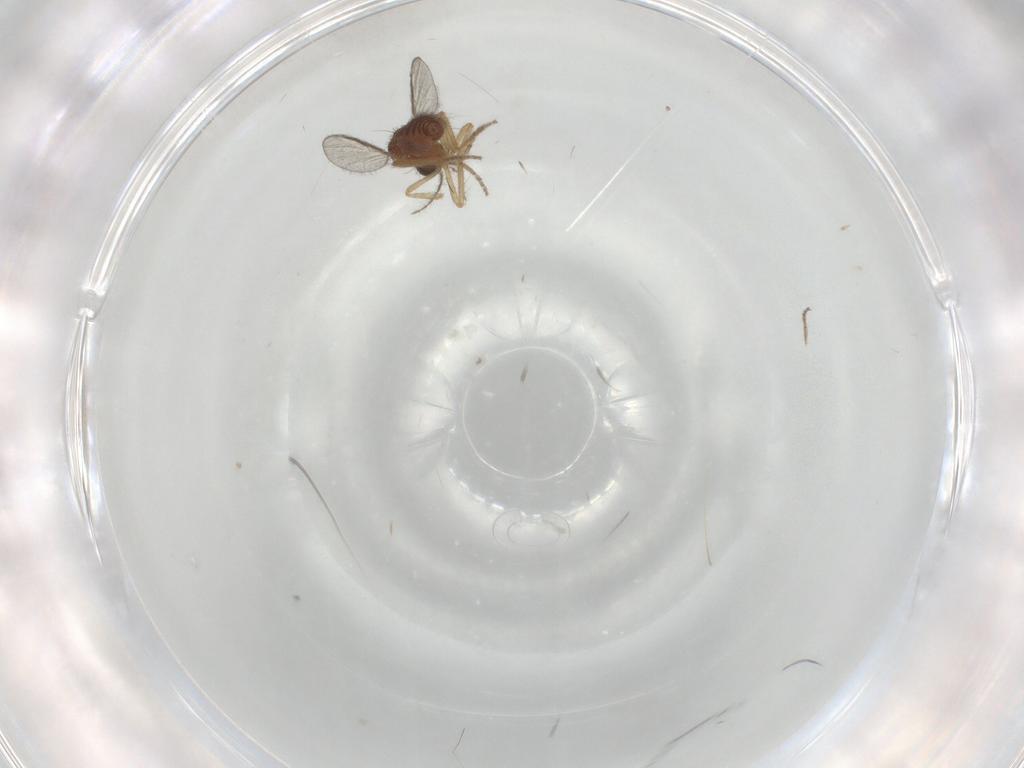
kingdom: Animalia
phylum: Arthropoda
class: Insecta
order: Diptera
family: Ceratopogonidae
